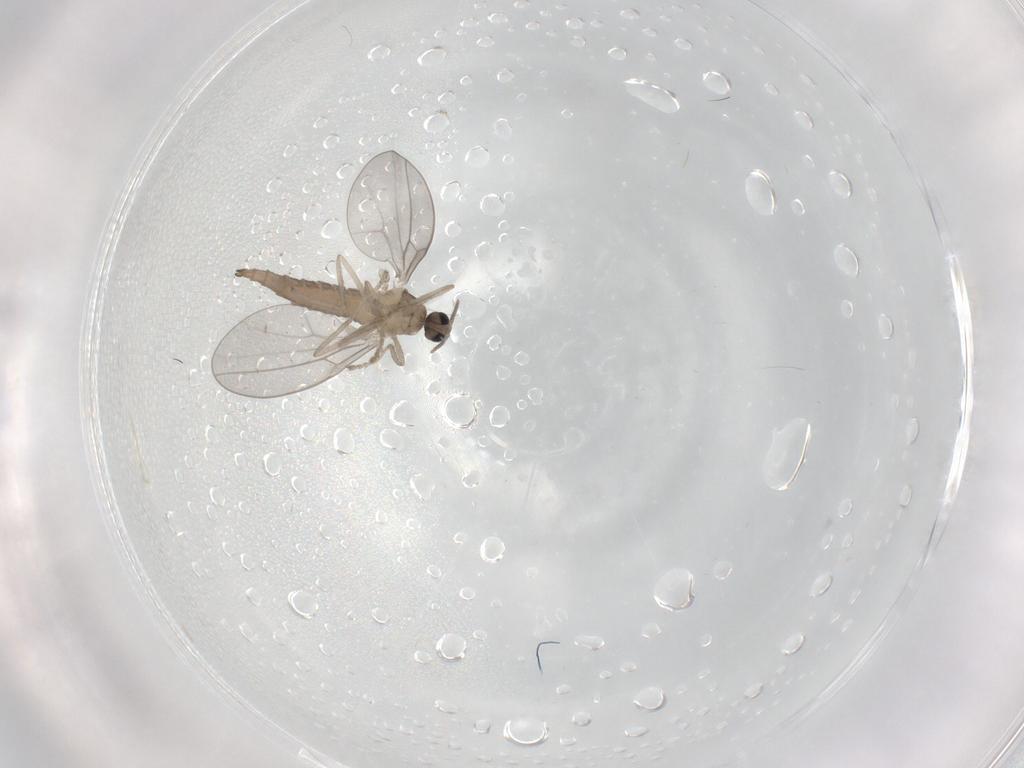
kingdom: Animalia
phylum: Arthropoda
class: Insecta
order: Diptera
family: Cecidomyiidae
